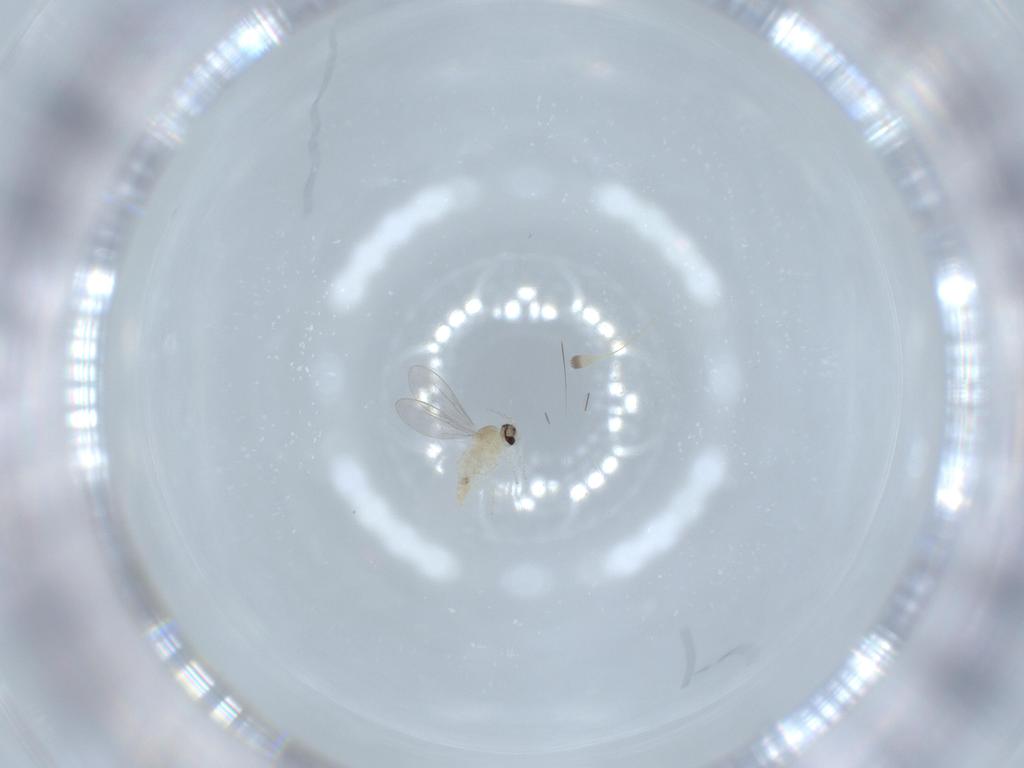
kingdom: Animalia
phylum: Arthropoda
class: Insecta
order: Diptera
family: Cecidomyiidae
